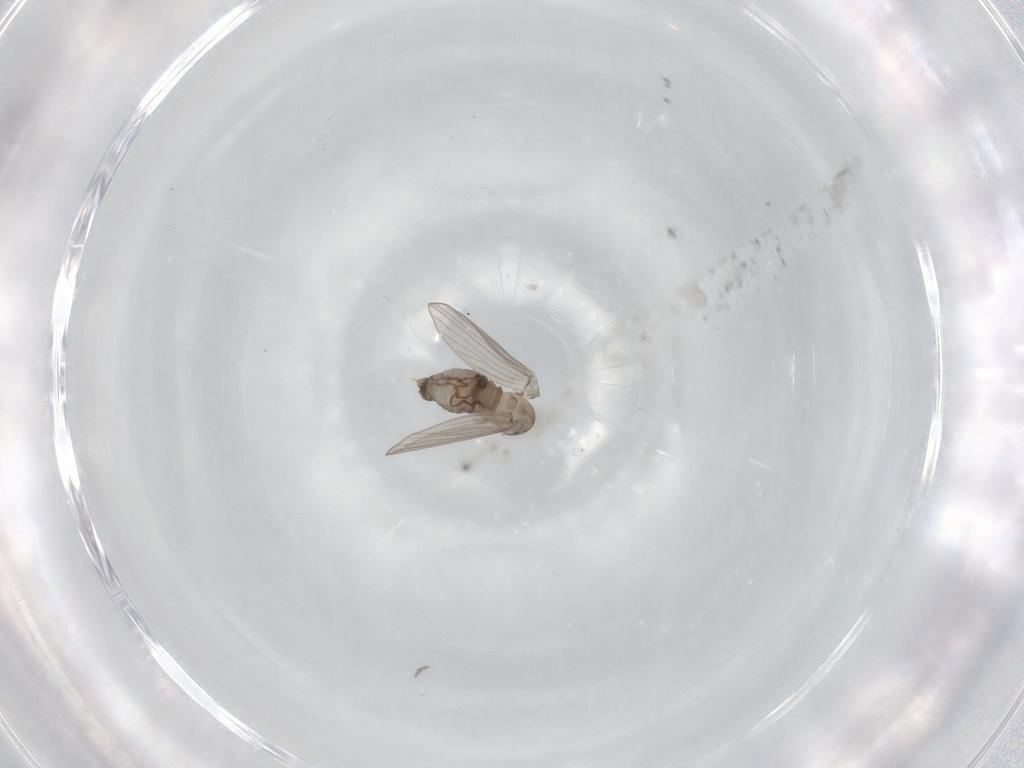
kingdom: Animalia
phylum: Arthropoda
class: Insecta
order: Diptera
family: Psychodidae
